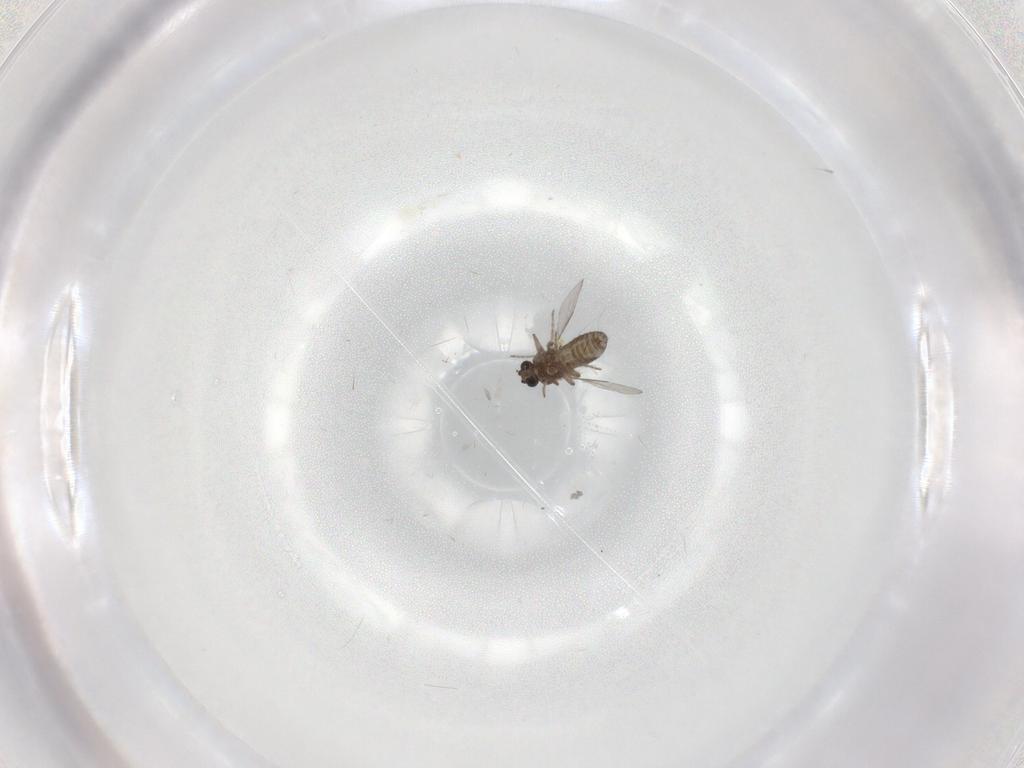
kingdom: Animalia
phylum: Arthropoda
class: Insecta
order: Diptera
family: Ceratopogonidae
